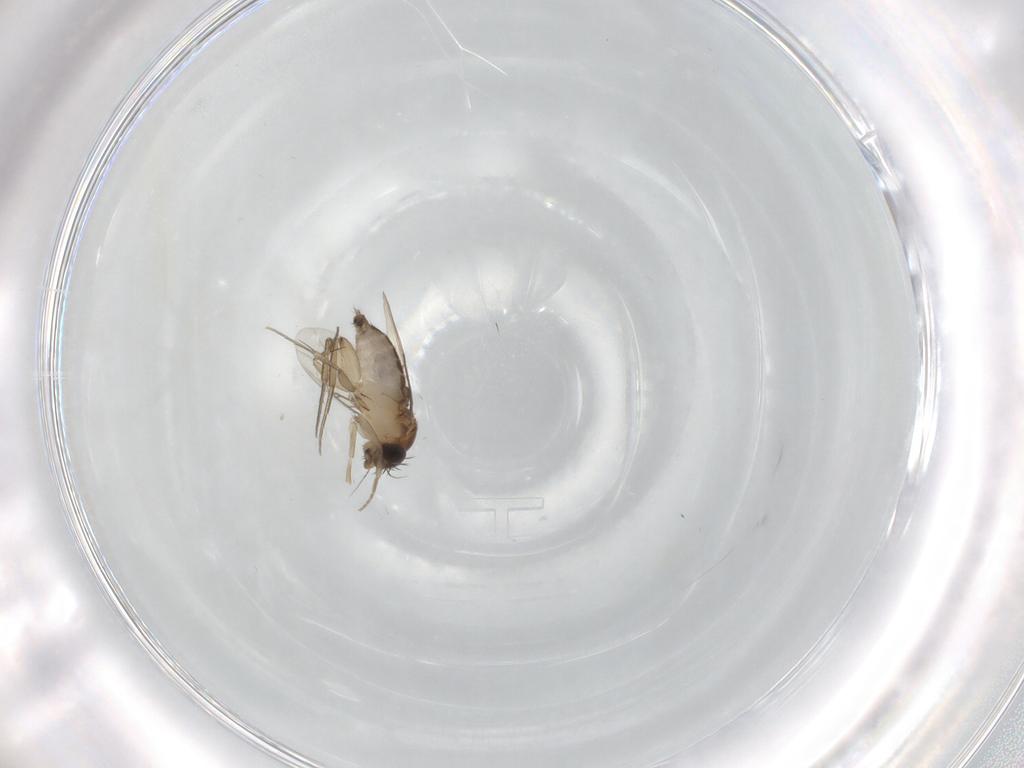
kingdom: Animalia
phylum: Arthropoda
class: Insecta
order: Diptera
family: Phoridae
